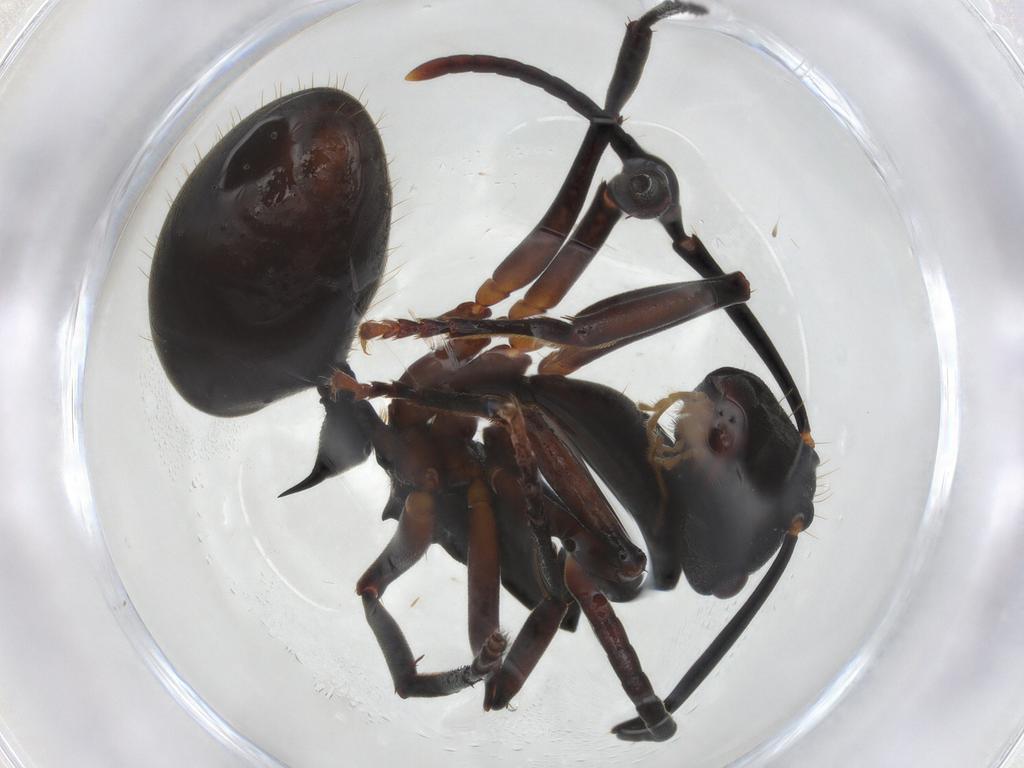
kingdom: Animalia
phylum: Arthropoda
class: Insecta
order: Hymenoptera
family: Formicidae
